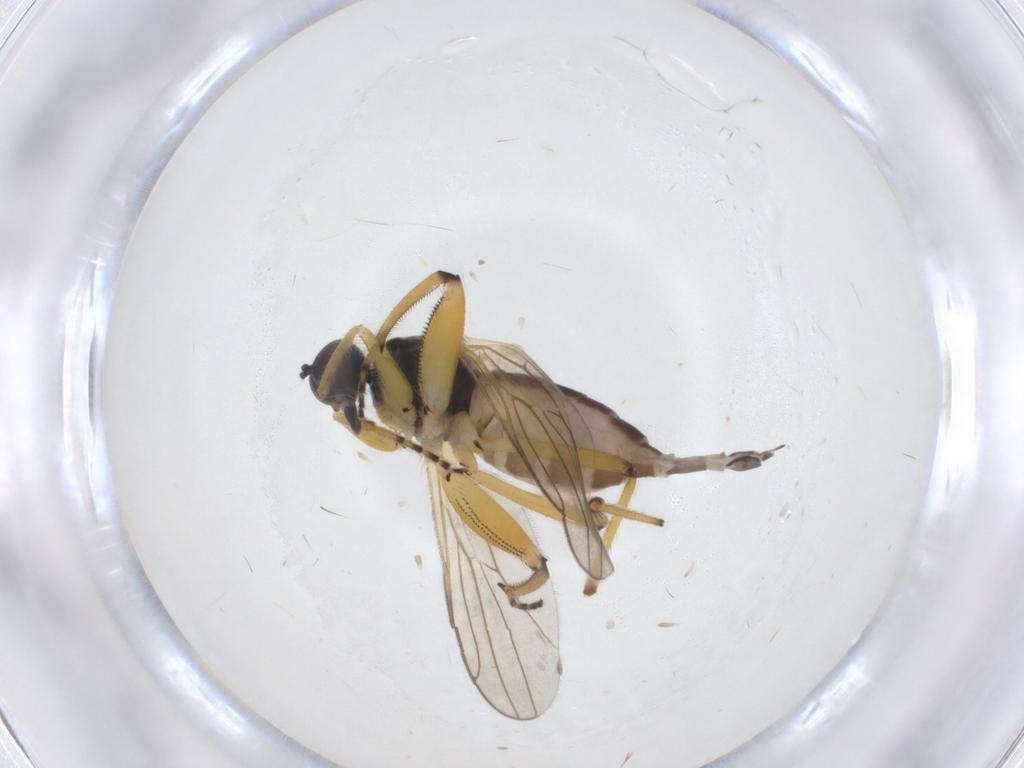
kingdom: Animalia
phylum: Arthropoda
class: Insecta
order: Diptera
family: Hybotidae
